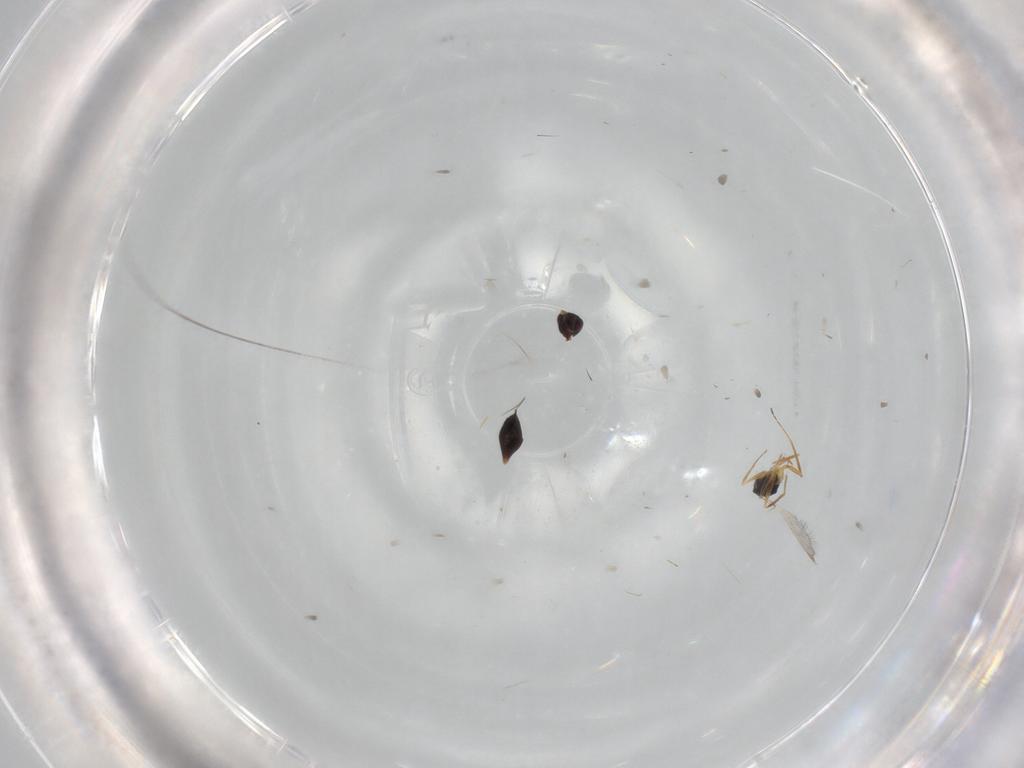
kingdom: Animalia
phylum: Arthropoda
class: Insecta
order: Hymenoptera
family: Mymaridae
